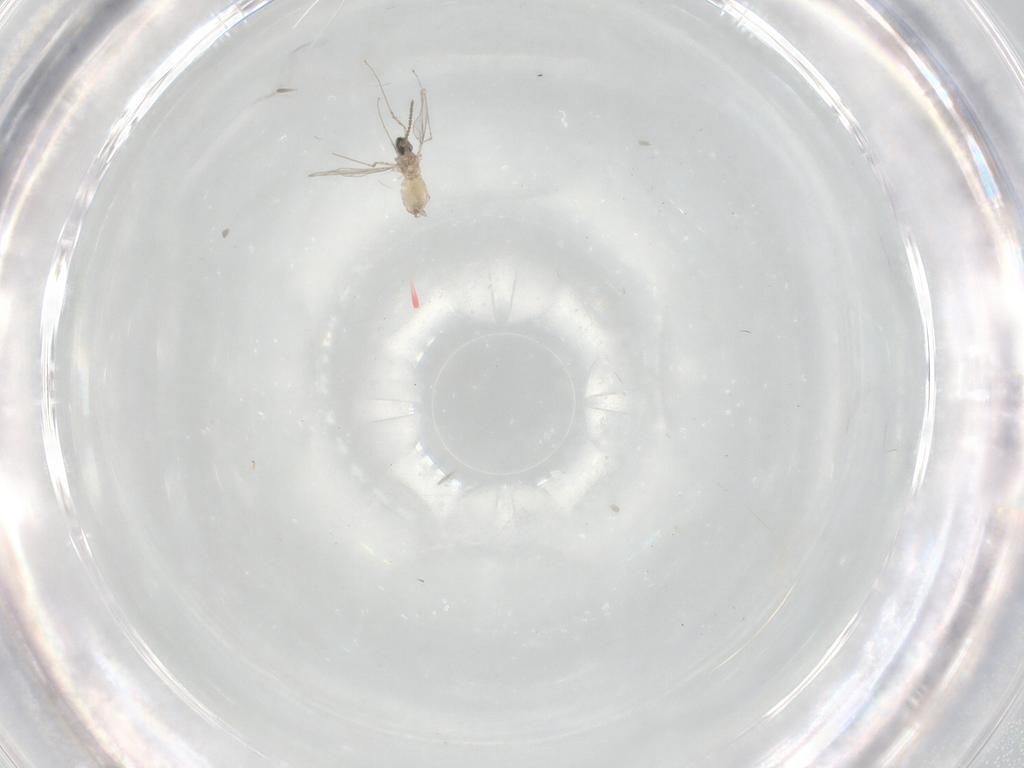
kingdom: Animalia
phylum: Arthropoda
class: Insecta
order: Diptera
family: Cecidomyiidae
